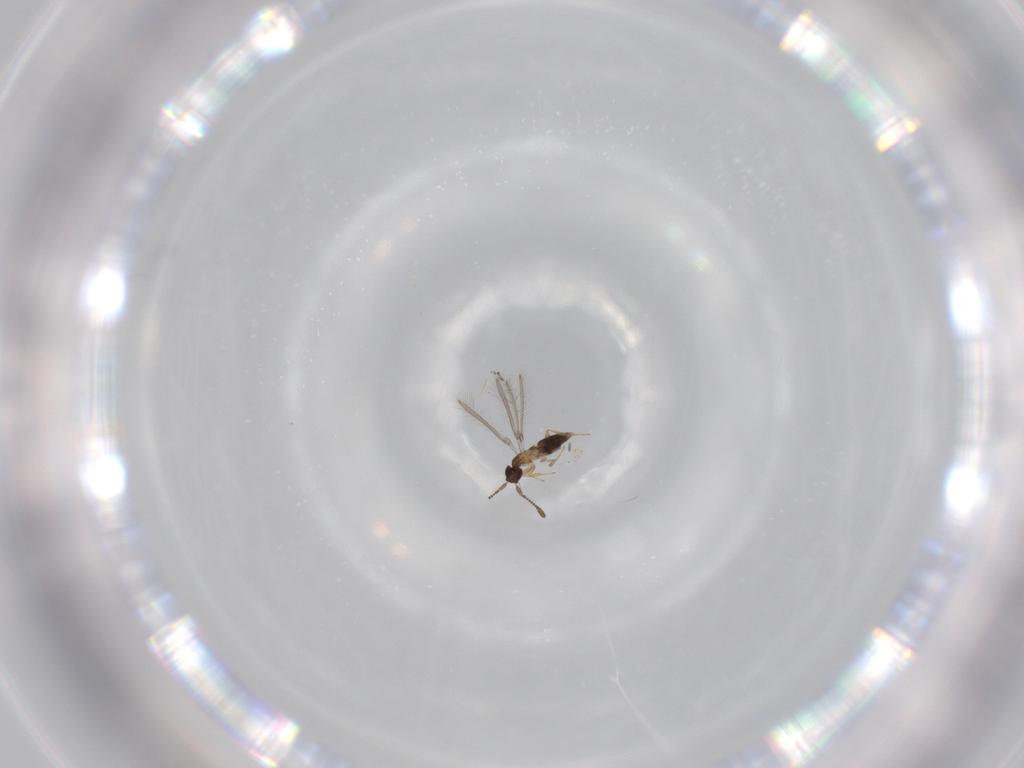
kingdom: Animalia
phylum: Arthropoda
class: Insecta
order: Hymenoptera
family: Mymaridae
